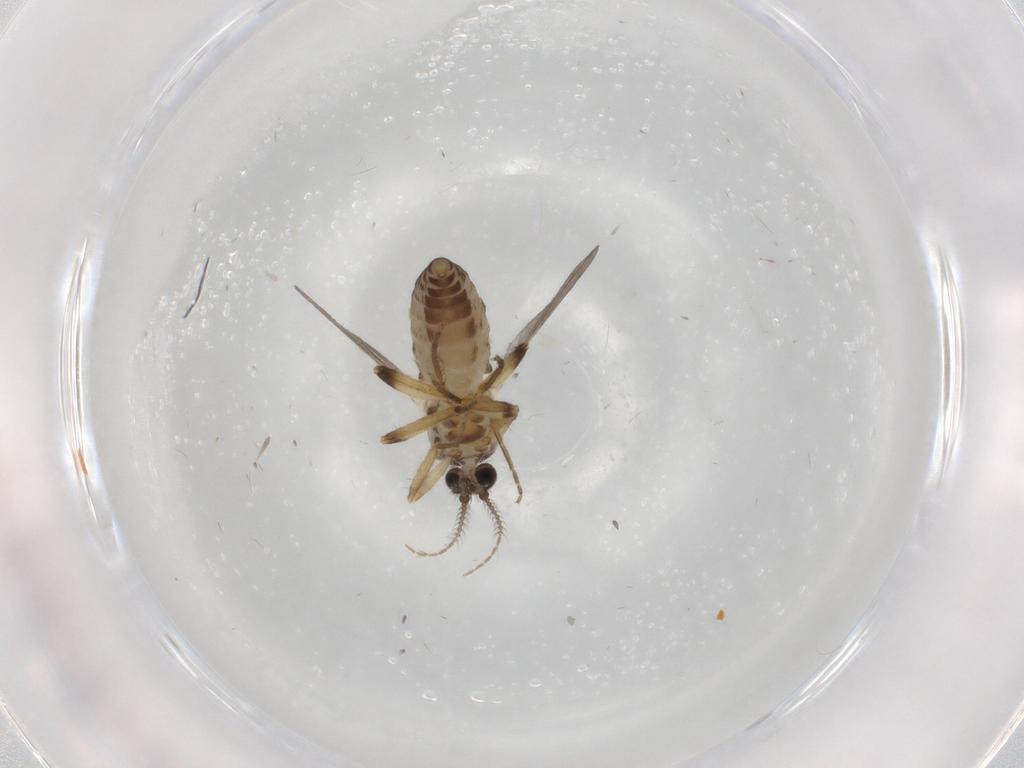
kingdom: Animalia
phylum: Arthropoda
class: Insecta
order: Diptera
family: Ceratopogonidae
